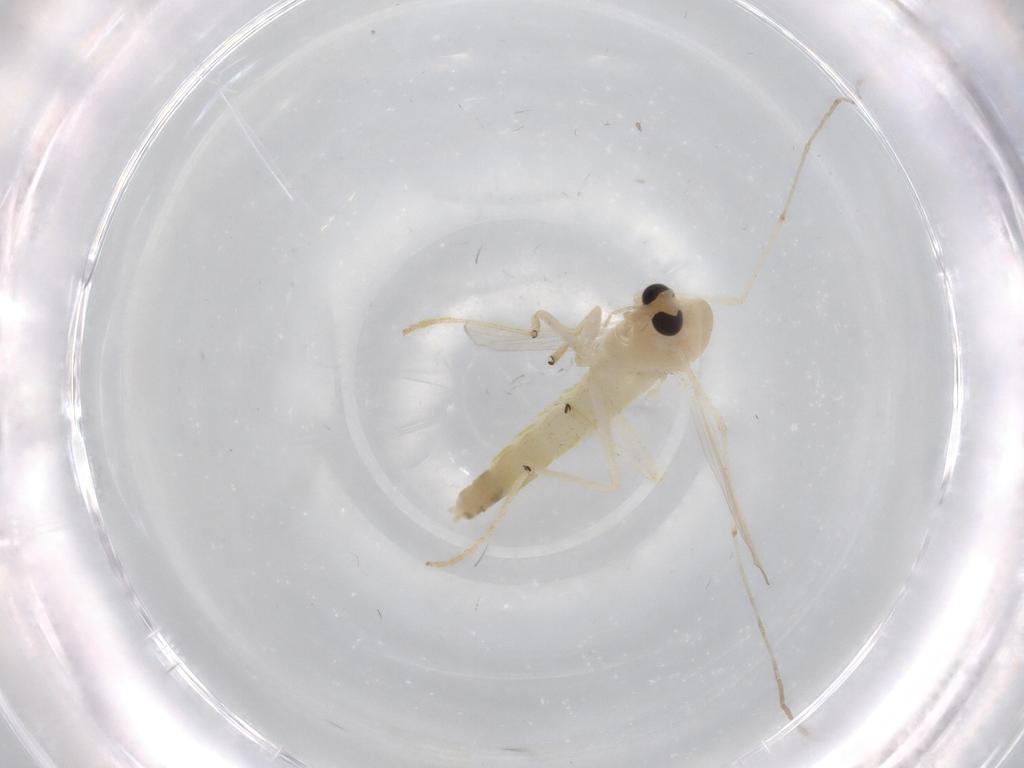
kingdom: Animalia
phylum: Arthropoda
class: Insecta
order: Diptera
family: Chironomidae
